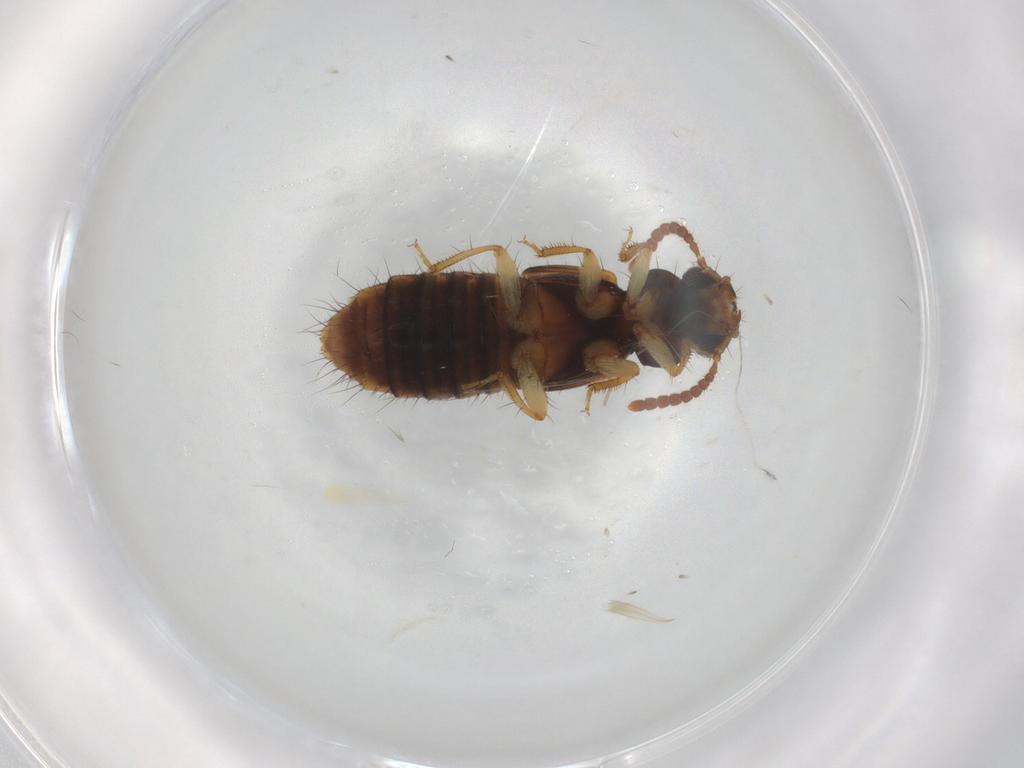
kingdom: Animalia
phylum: Arthropoda
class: Insecta
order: Coleoptera
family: Staphylinidae
